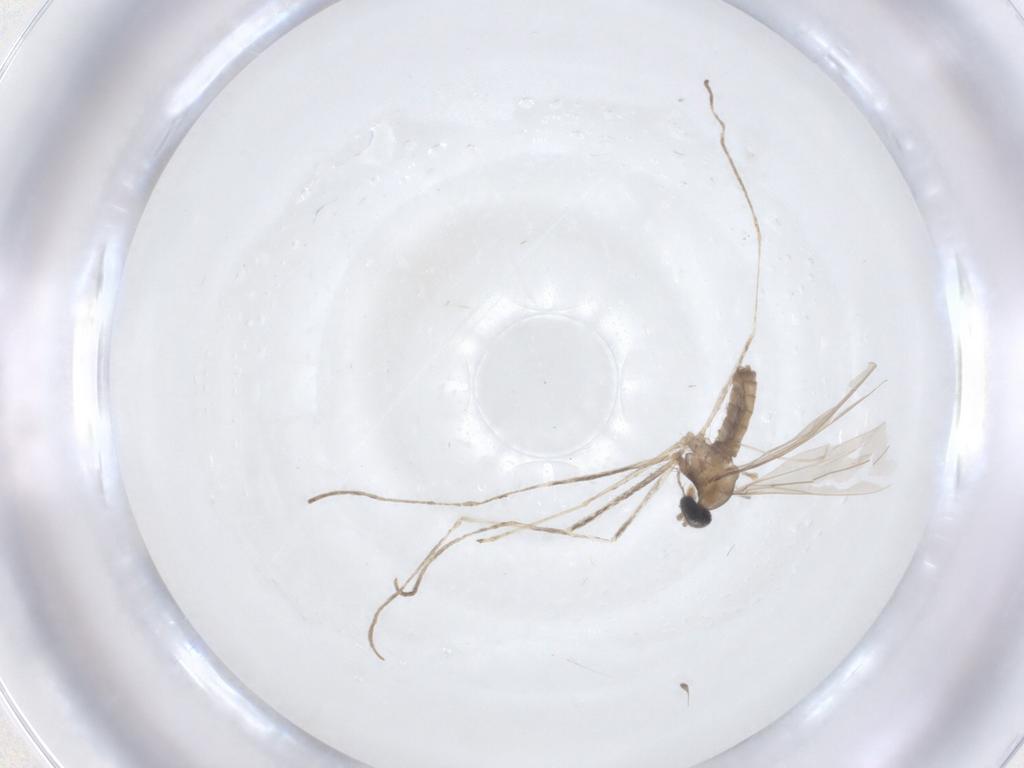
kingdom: Animalia
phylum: Arthropoda
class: Insecta
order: Diptera
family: Cecidomyiidae
